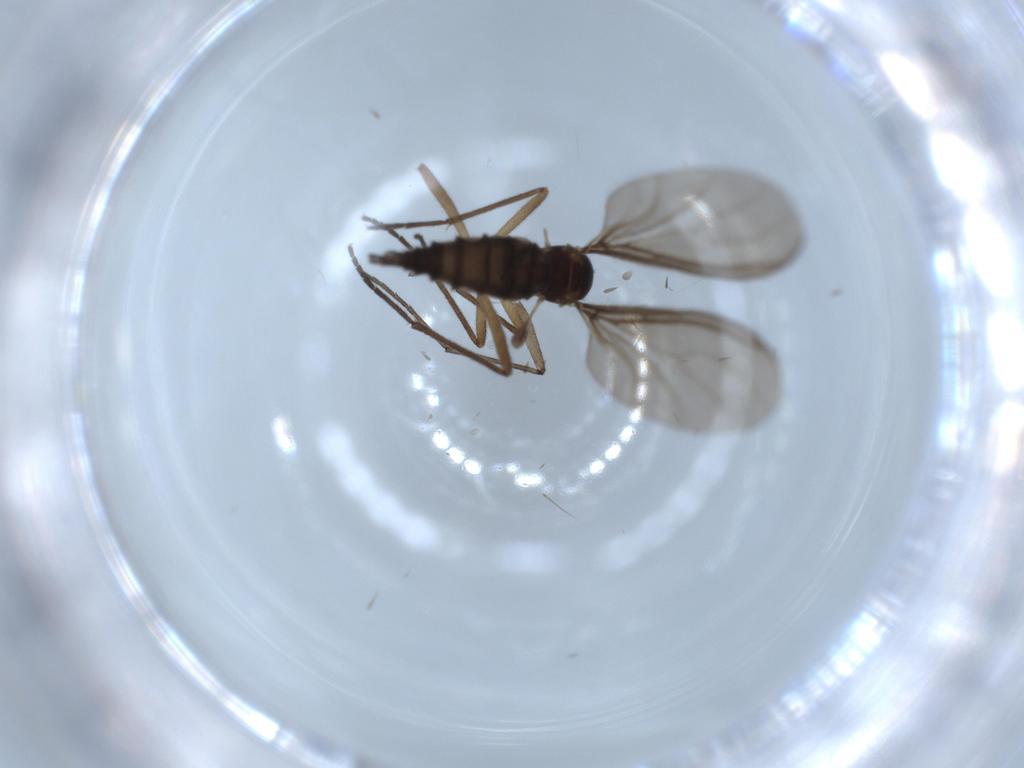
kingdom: Animalia
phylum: Arthropoda
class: Insecta
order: Diptera
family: Sciaridae
